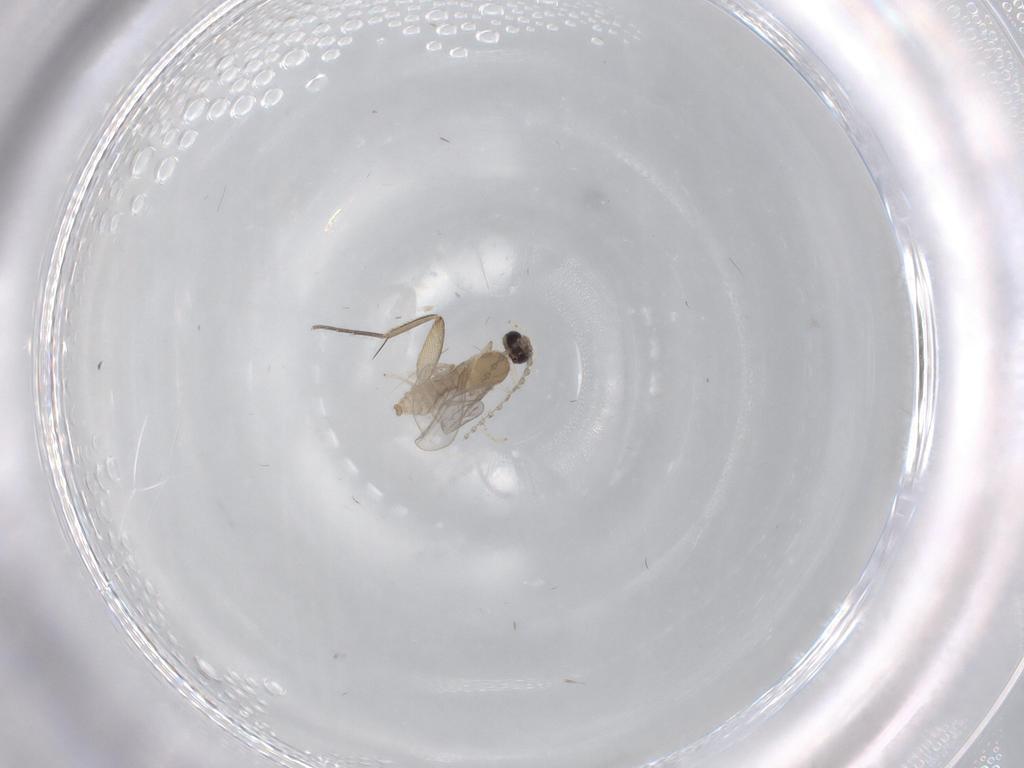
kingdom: Animalia
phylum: Arthropoda
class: Insecta
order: Diptera
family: Cecidomyiidae
